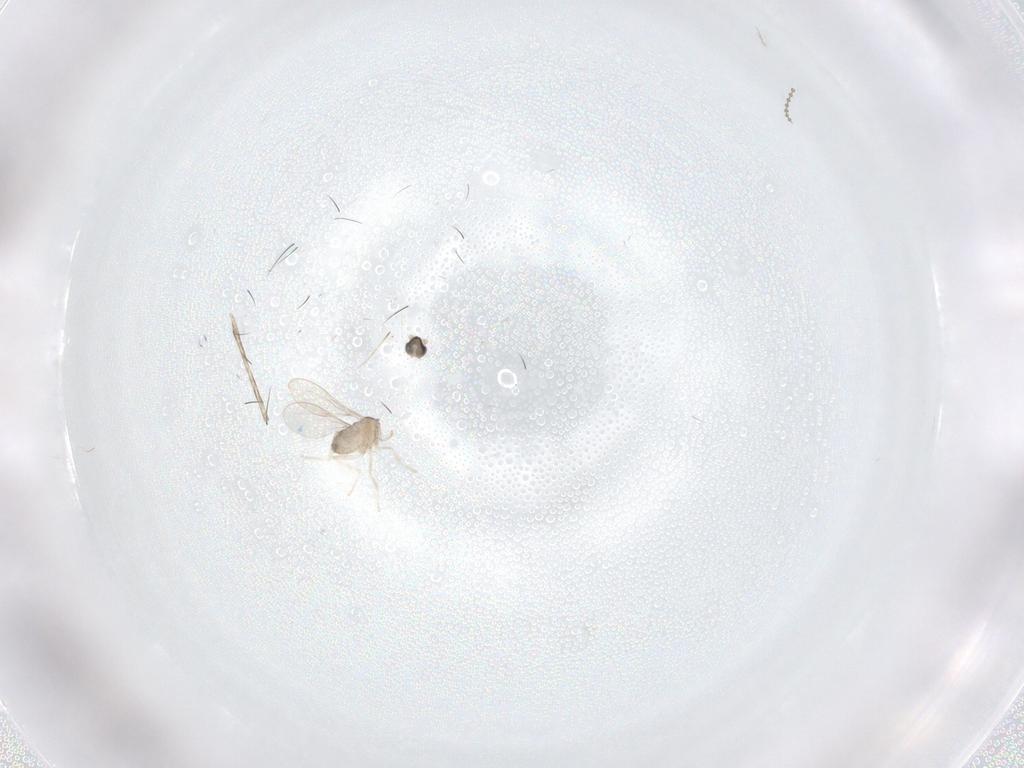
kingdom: Animalia
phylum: Arthropoda
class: Insecta
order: Diptera
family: Cecidomyiidae
